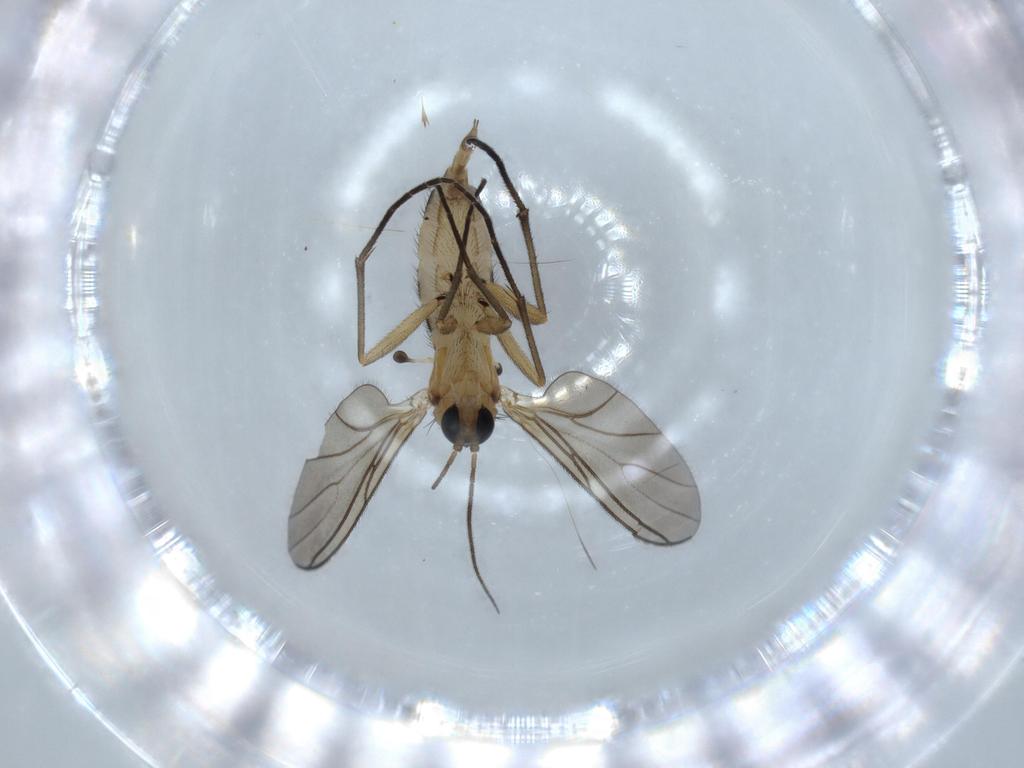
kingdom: Animalia
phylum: Arthropoda
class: Insecta
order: Diptera
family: Sciaridae
